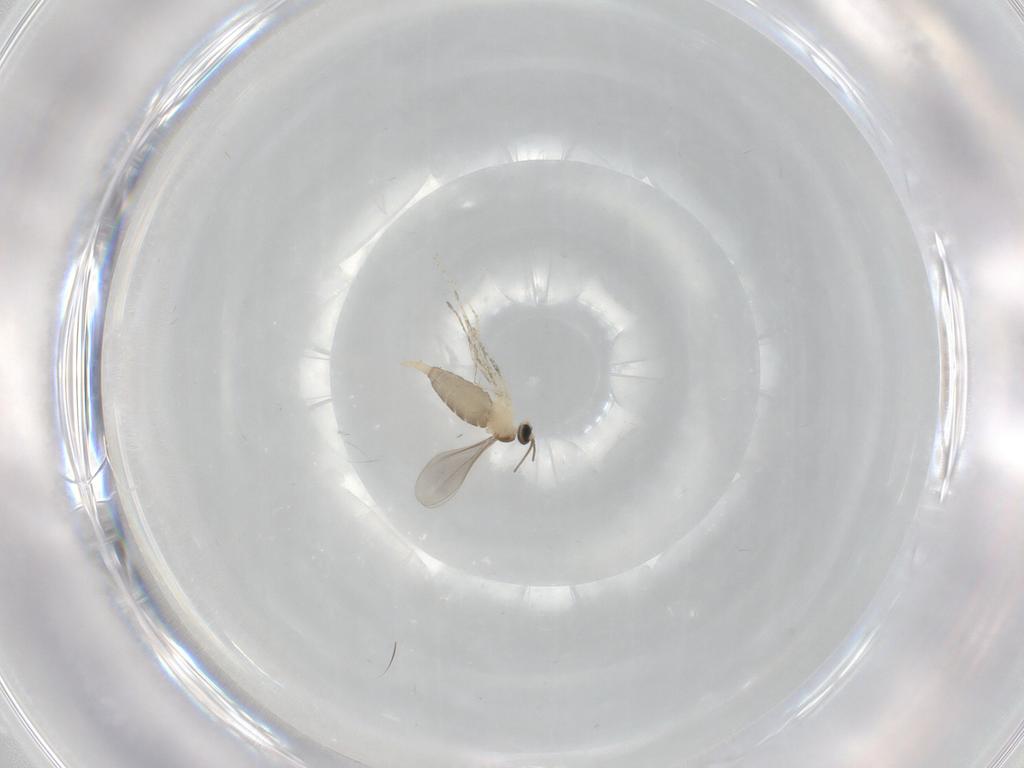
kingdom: Animalia
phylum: Arthropoda
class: Insecta
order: Diptera
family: Cecidomyiidae
